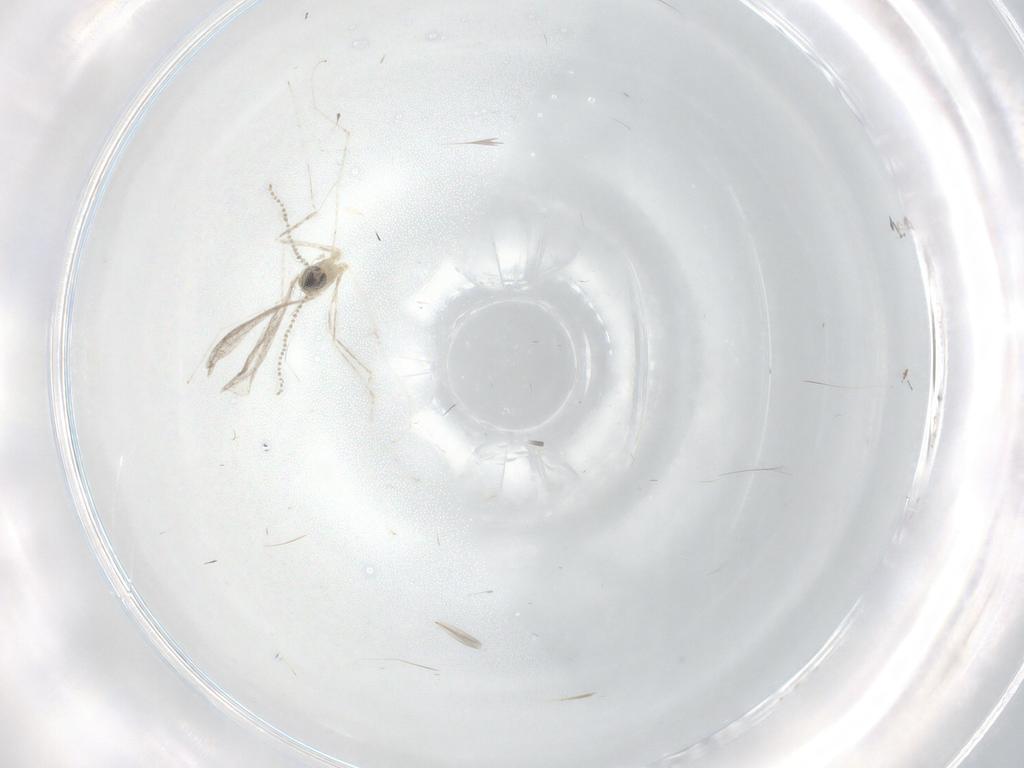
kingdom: Animalia
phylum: Arthropoda
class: Insecta
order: Diptera
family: Cecidomyiidae
